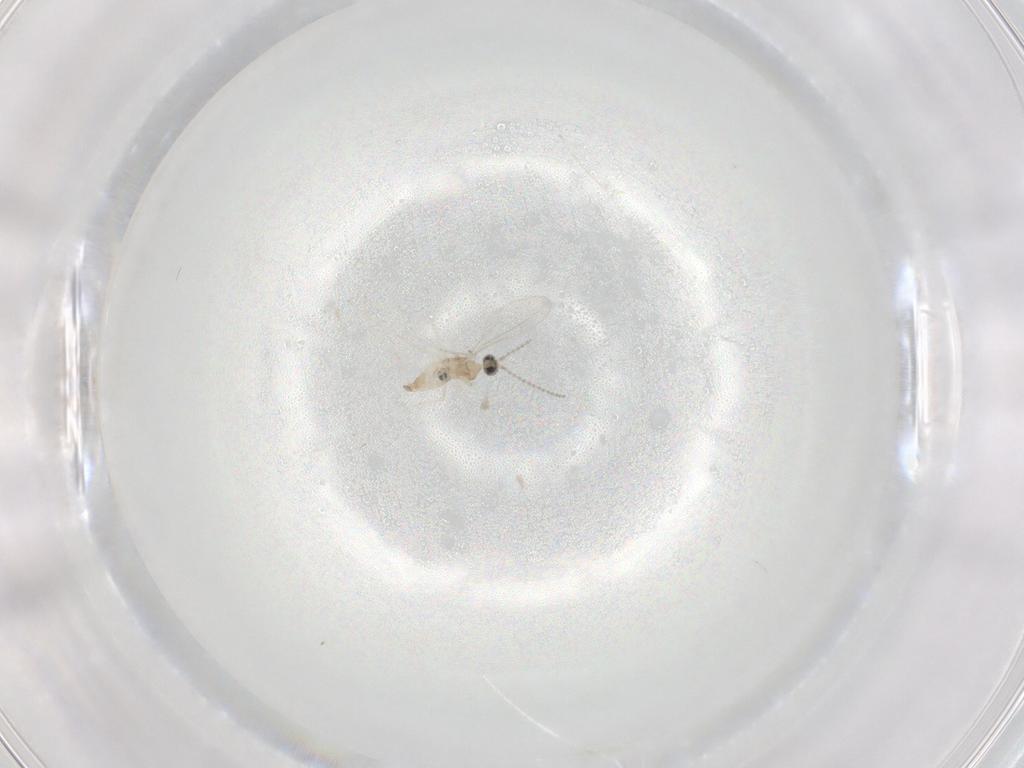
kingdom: Animalia
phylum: Arthropoda
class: Insecta
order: Diptera
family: Cecidomyiidae
